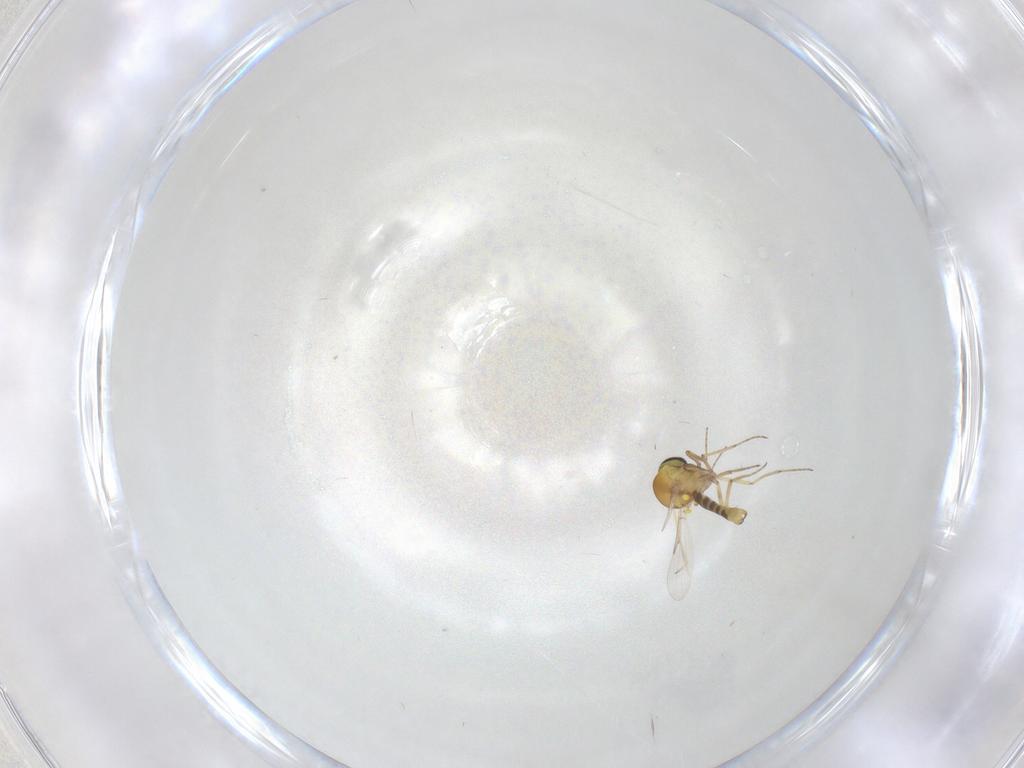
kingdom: Animalia
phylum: Arthropoda
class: Insecta
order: Diptera
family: Ceratopogonidae
